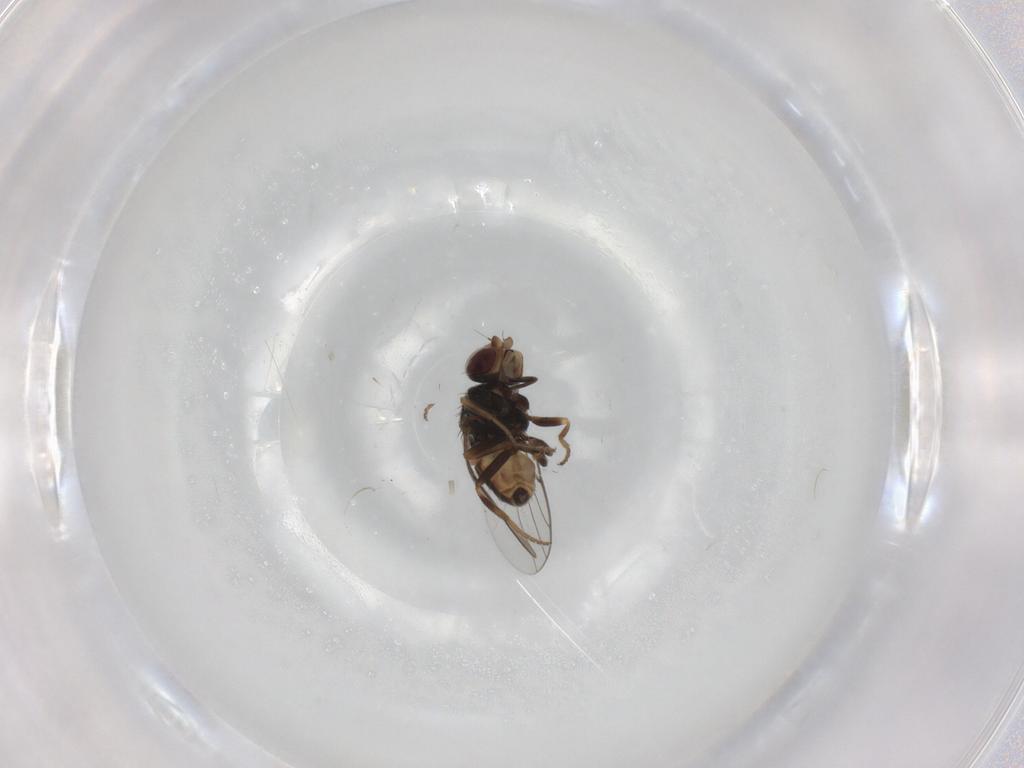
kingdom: Animalia
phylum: Arthropoda
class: Insecta
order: Diptera
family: Chloropidae
